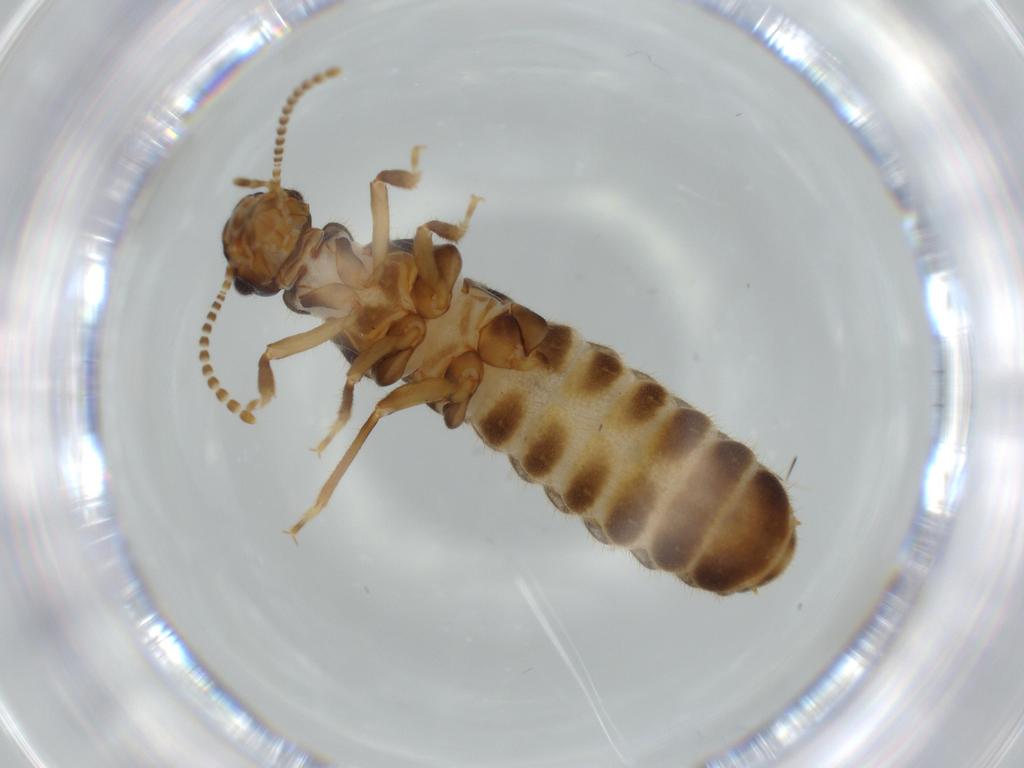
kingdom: Animalia
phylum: Arthropoda
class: Insecta
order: Blattodea
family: Termitidae
